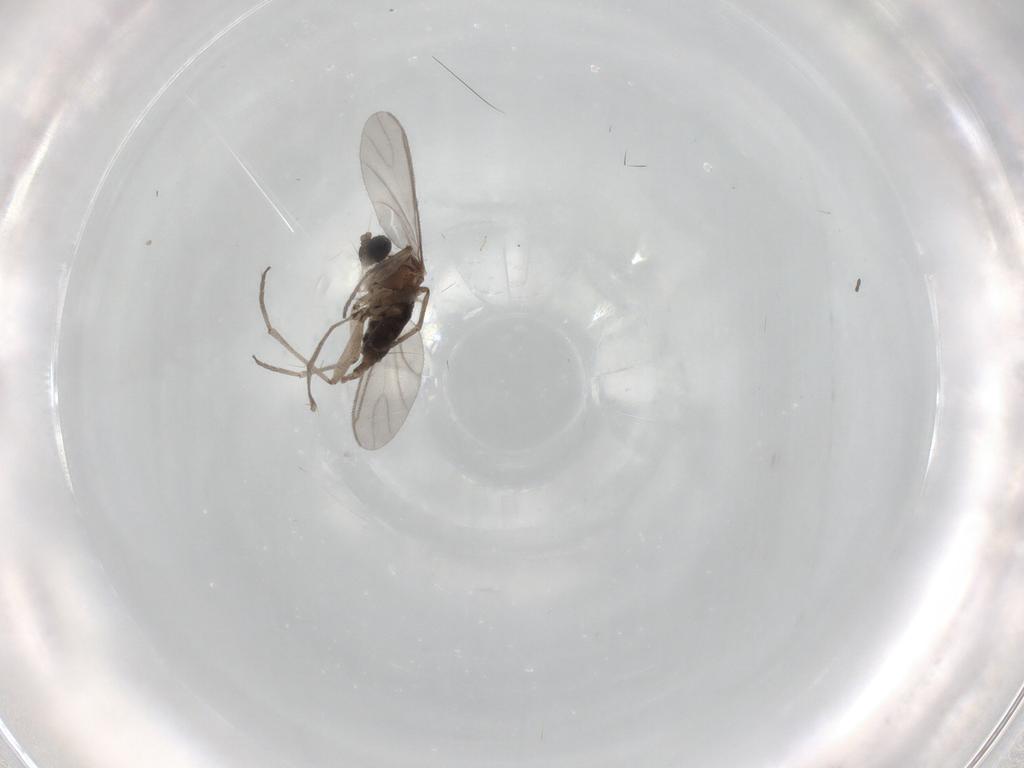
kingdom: Animalia
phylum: Arthropoda
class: Insecta
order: Diptera
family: Sciaridae
